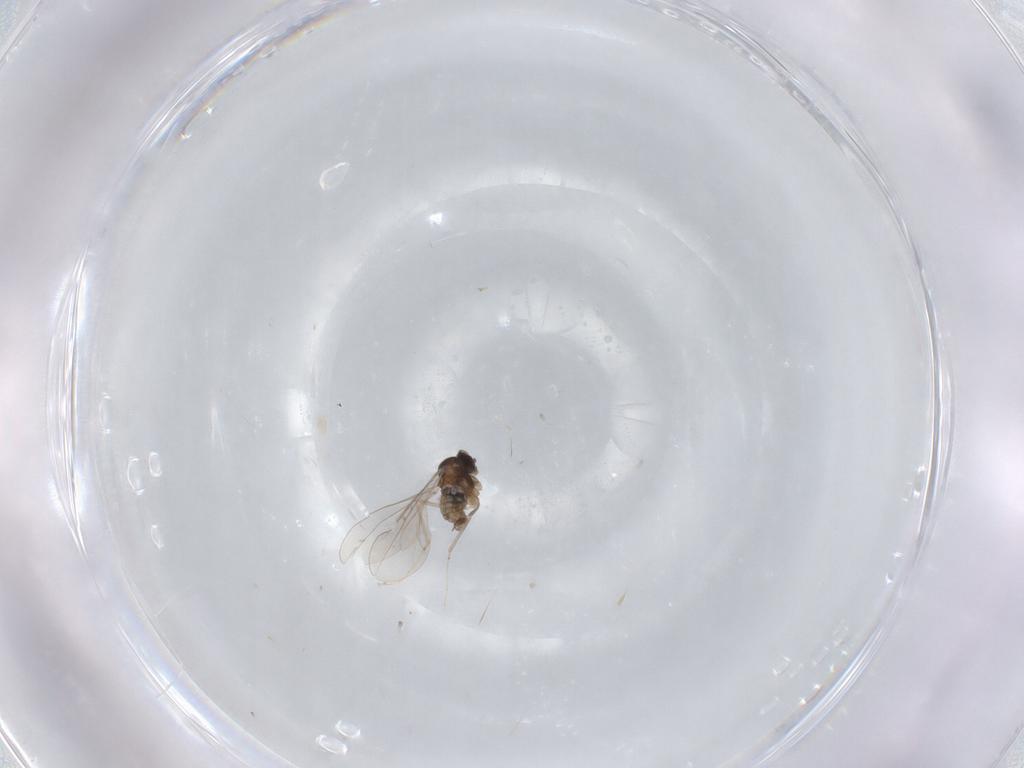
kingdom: Animalia
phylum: Arthropoda
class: Insecta
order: Diptera
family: Cecidomyiidae
